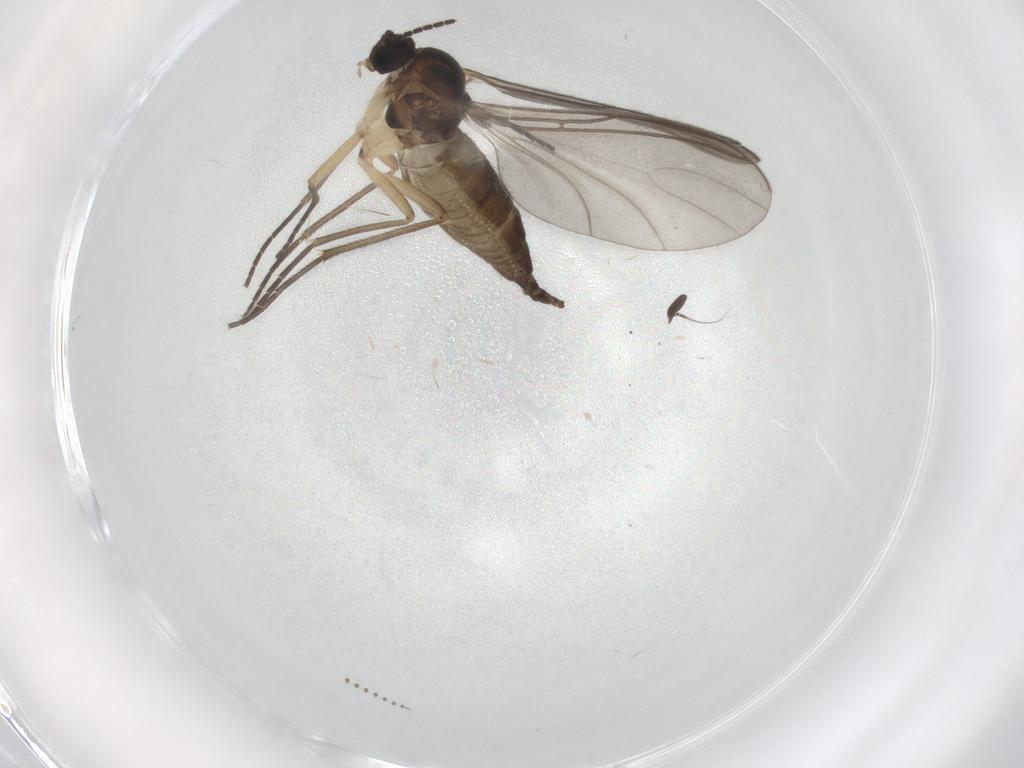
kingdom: Animalia
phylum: Arthropoda
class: Insecta
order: Diptera
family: Sciaridae
